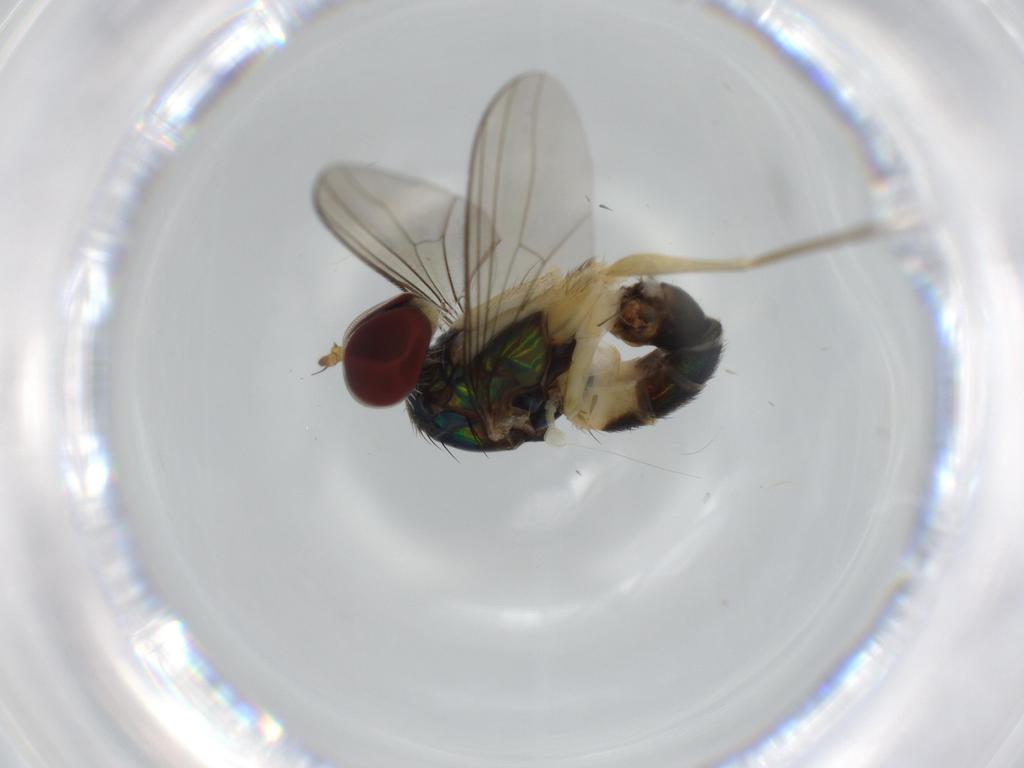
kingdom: Animalia
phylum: Arthropoda
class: Insecta
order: Diptera
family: Dolichopodidae
